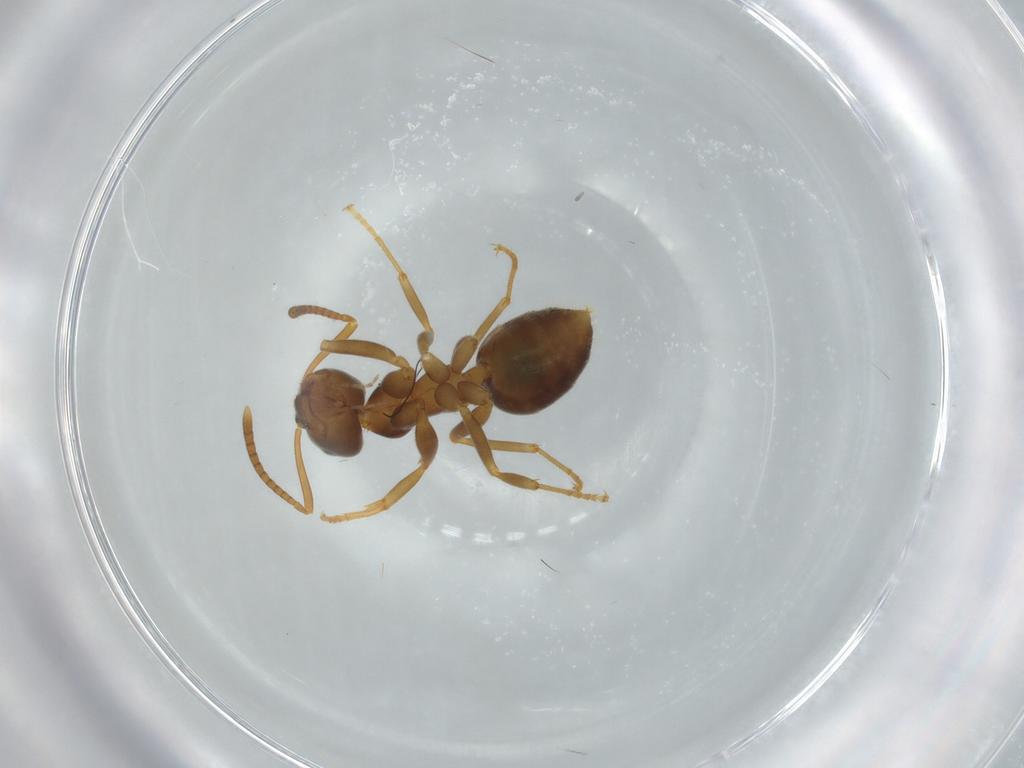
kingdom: Animalia
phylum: Arthropoda
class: Insecta
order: Hymenoptera
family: Formicidae
